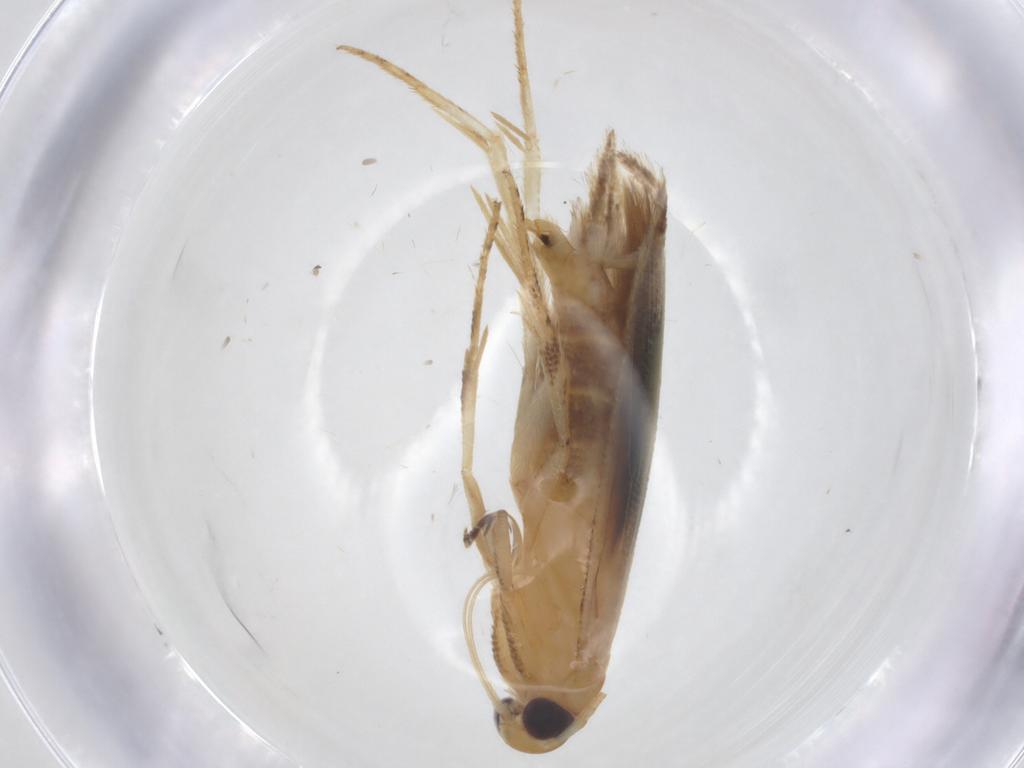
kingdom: Animalia
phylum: Arthropoda
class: Insecta
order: Lepidoptera
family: Momphidae
